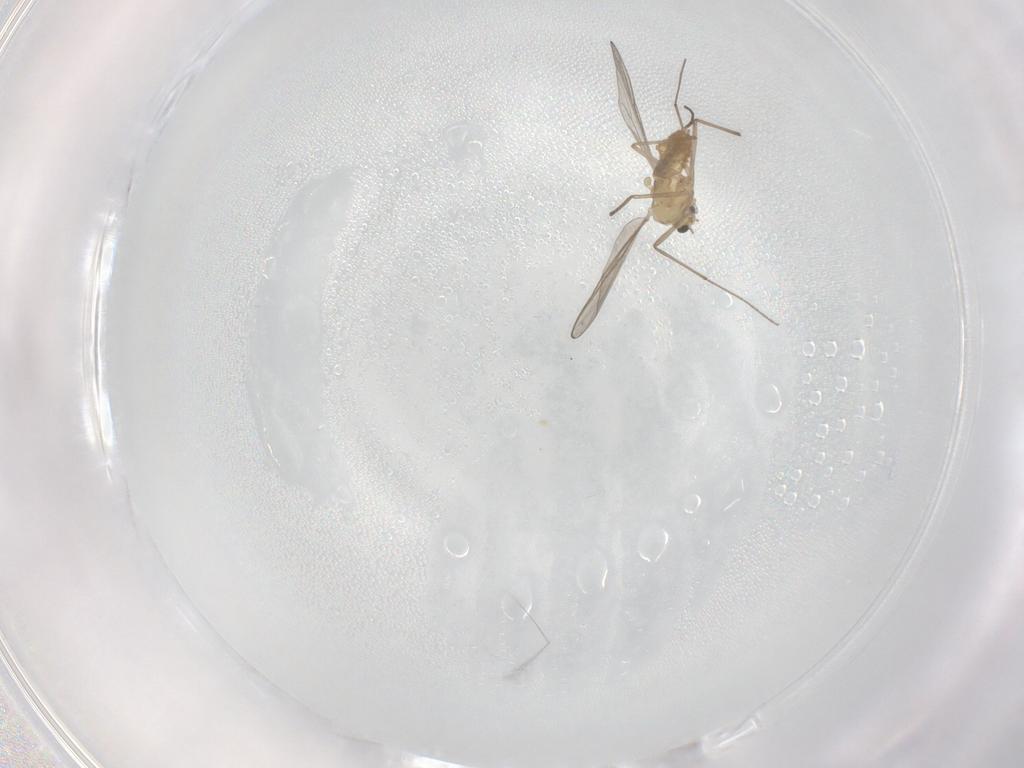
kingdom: Animalia
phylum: Arthropoda
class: Insecta
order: Diptera
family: Chironomidae
